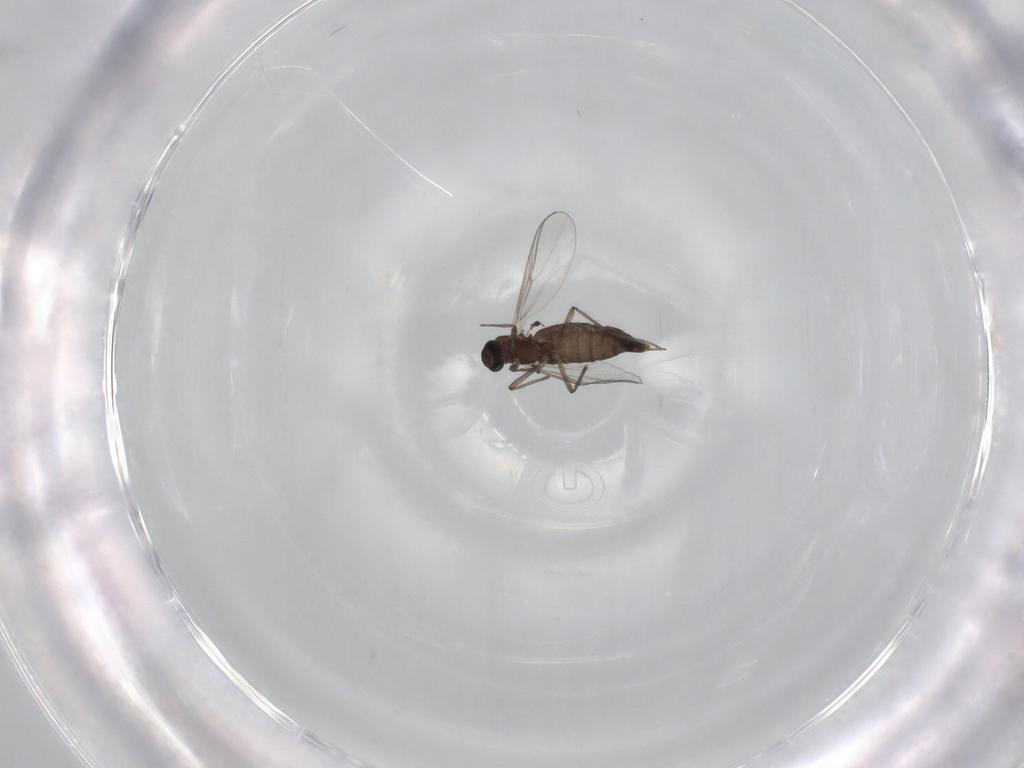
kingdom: Animalia
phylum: Arthropoda
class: Insecta
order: Diptera
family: Chironomidae
